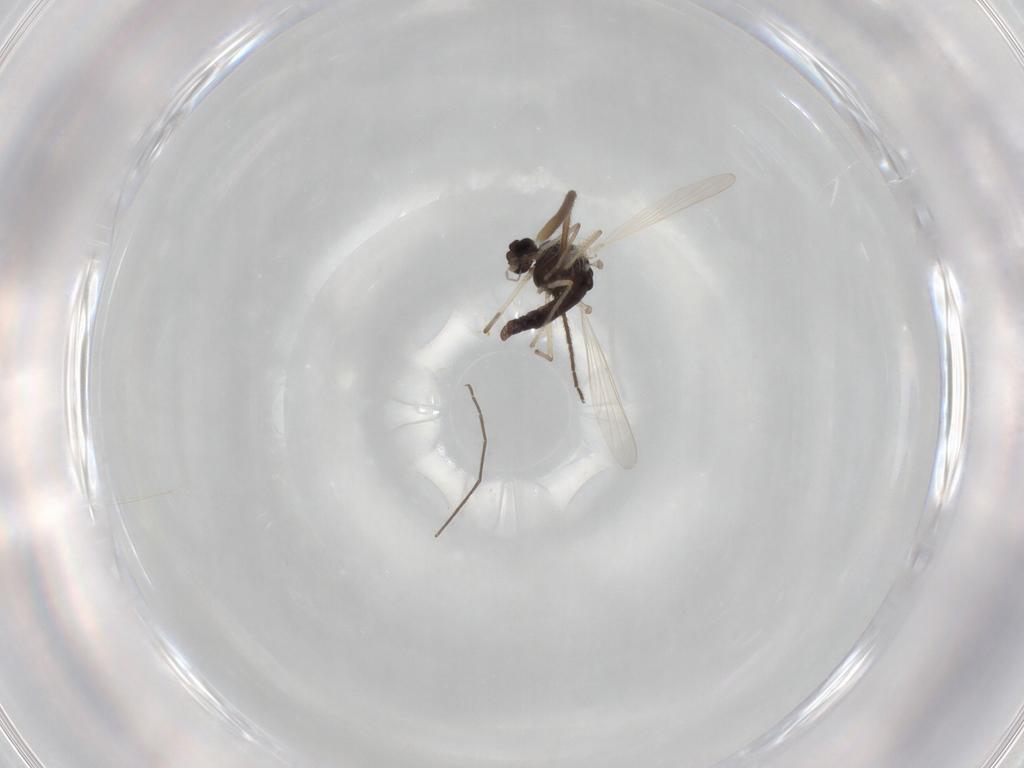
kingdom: Animalia
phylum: Arthropoda
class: Insecta
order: Diptera
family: Chironomidae
